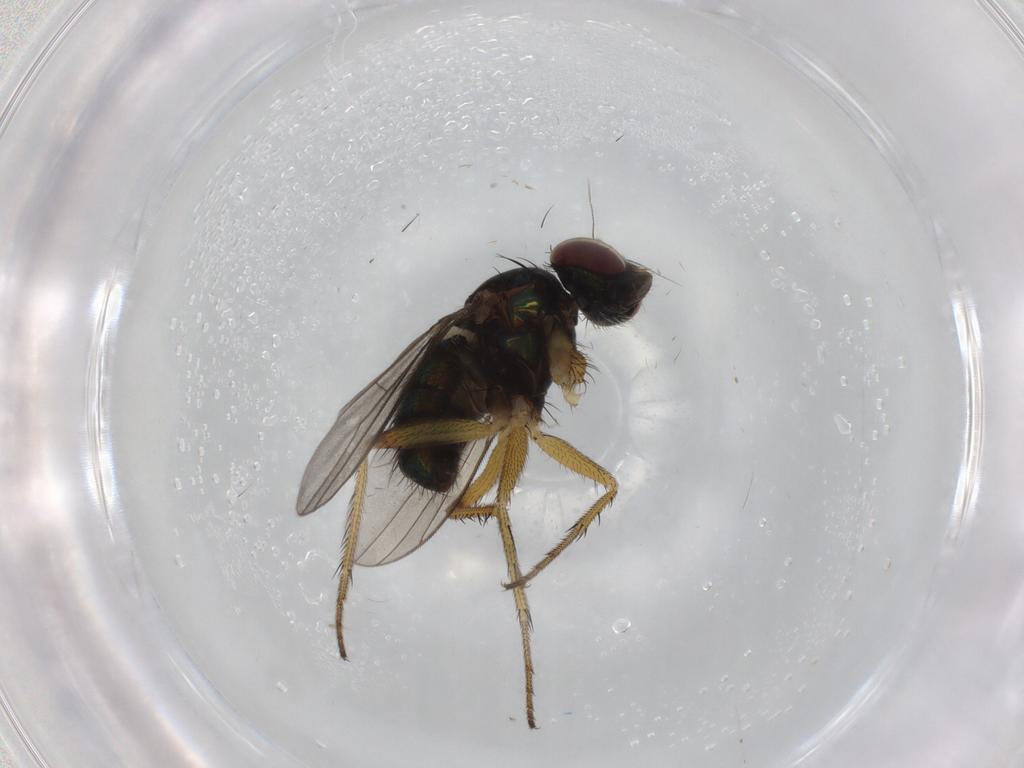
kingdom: Animalia
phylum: Arthropoda
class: Insecta
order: Diptera
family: Dolichopodidae
